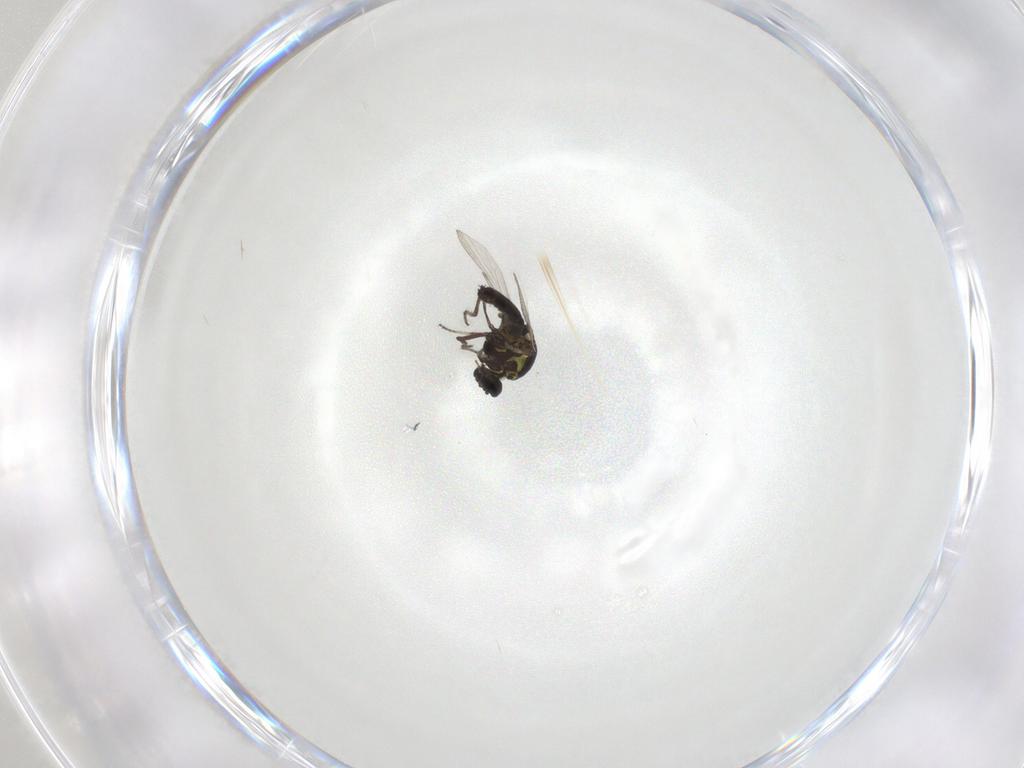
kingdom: Animalia
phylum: Arthropoda
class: Insecta
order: Diptera
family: Ceratopogonidae
